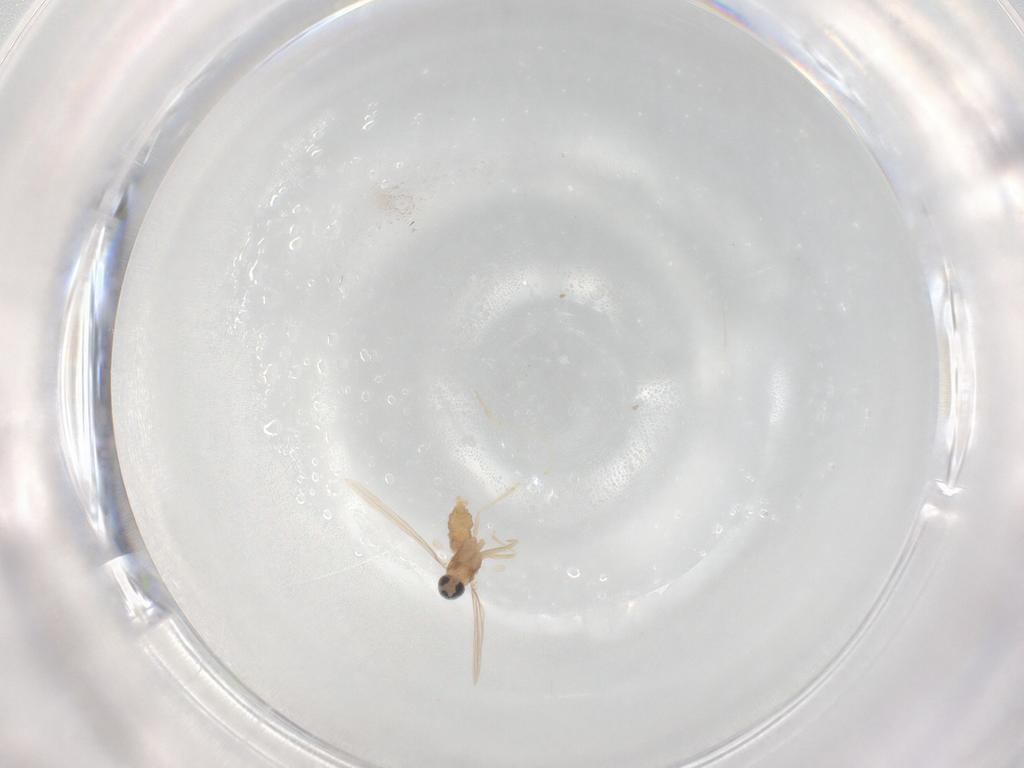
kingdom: Animalia
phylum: Arthropoda
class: Insecta
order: Diptera
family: Cecidomyiidae
